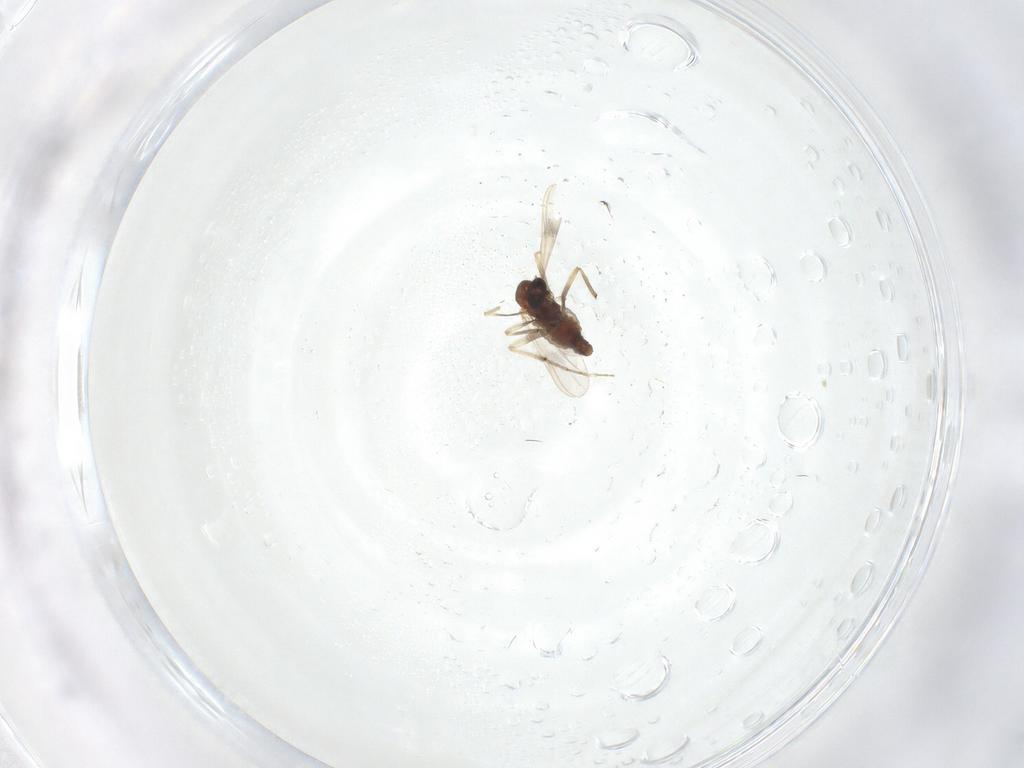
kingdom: Animalia
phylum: Arthropoda
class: Insecta
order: Diptera
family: Chironomidae
